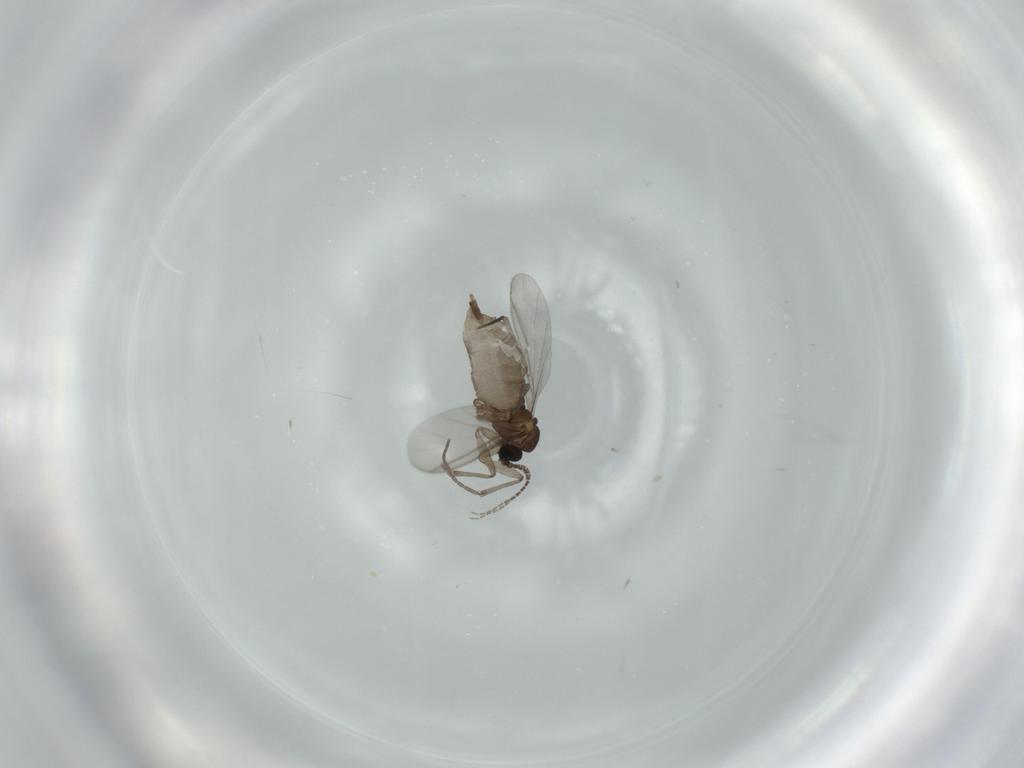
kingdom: Animalia
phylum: Arthropoda
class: Insecta
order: Diptera
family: Sciaridae
